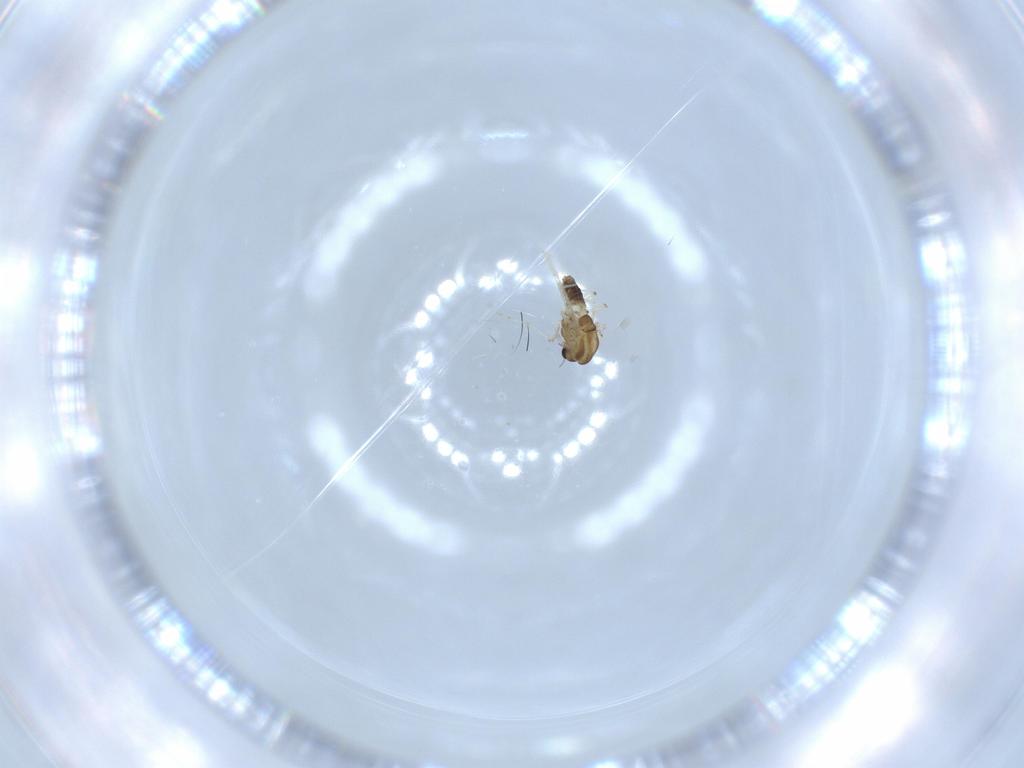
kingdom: Animalia
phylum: Arthropoda
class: Insecta
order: Diptera
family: Chironomidae
